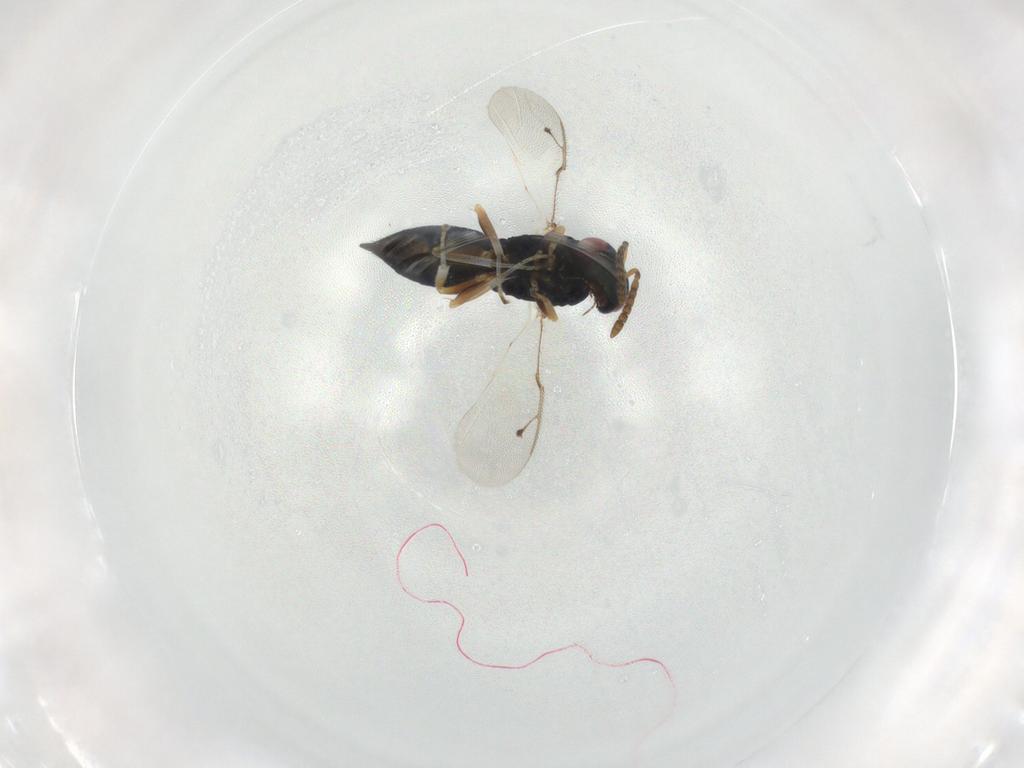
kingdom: Animalia
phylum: Arthropoda
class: Insecta
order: Hymenoptera
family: Pteromalidae
